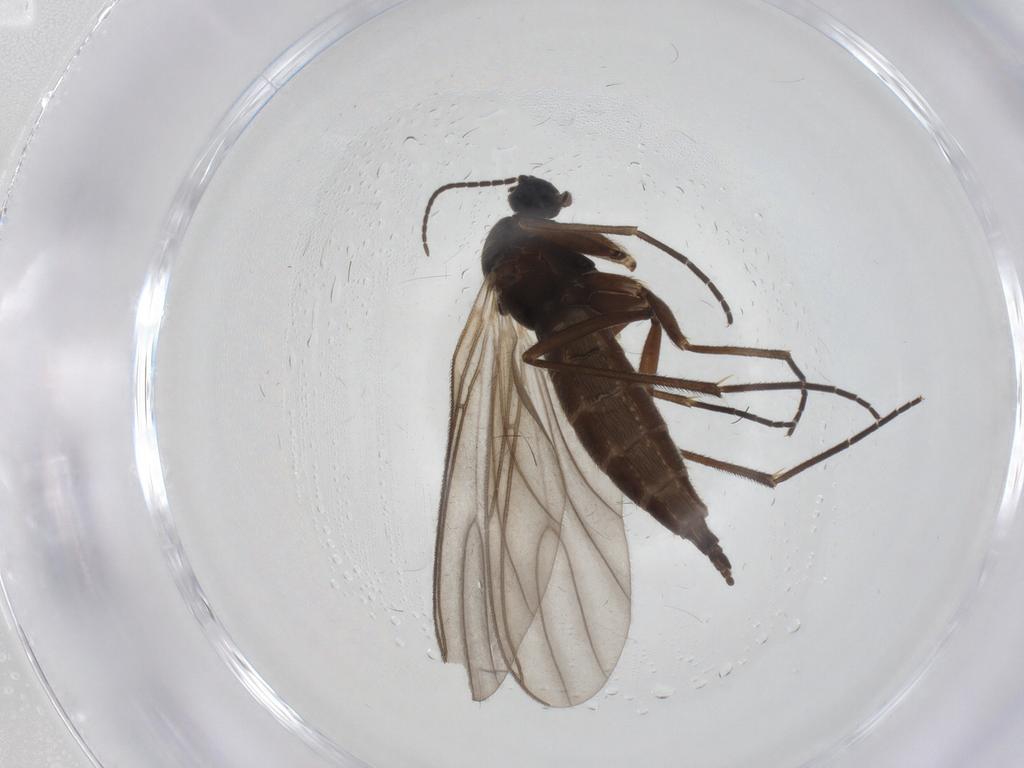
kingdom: Animalia
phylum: Arthropoda
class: Insecta
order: Diptera
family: Sciaridae
